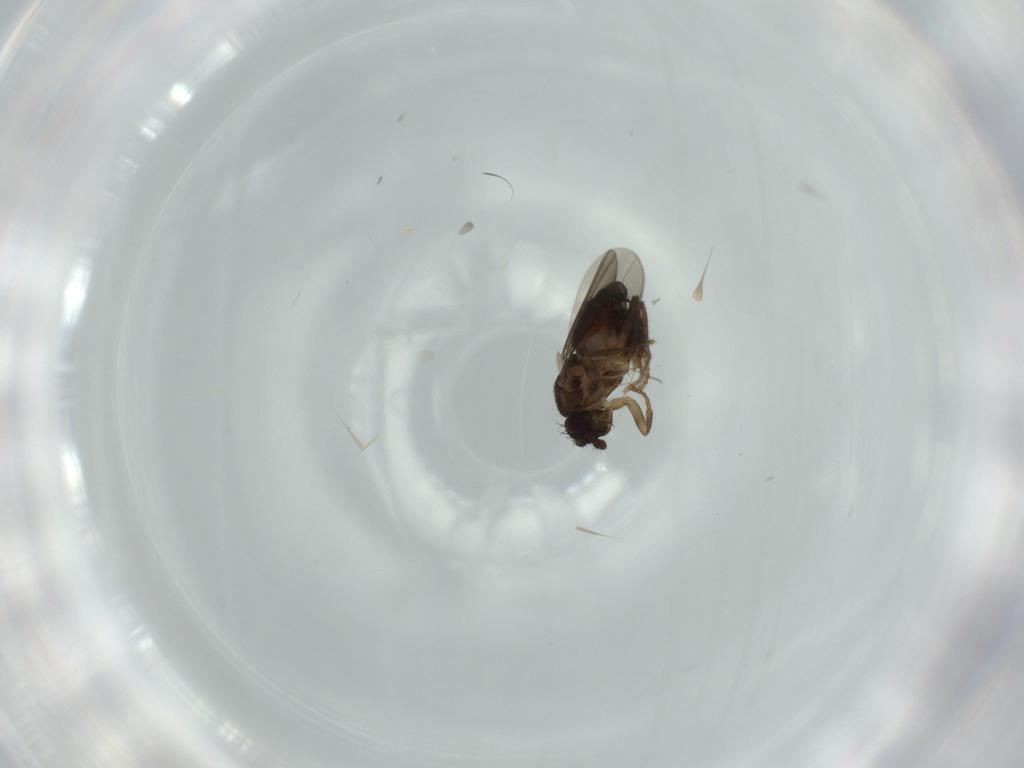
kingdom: Animalia
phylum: Arthropoda
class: Insecta
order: Diptera
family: Sphaeroceridae
